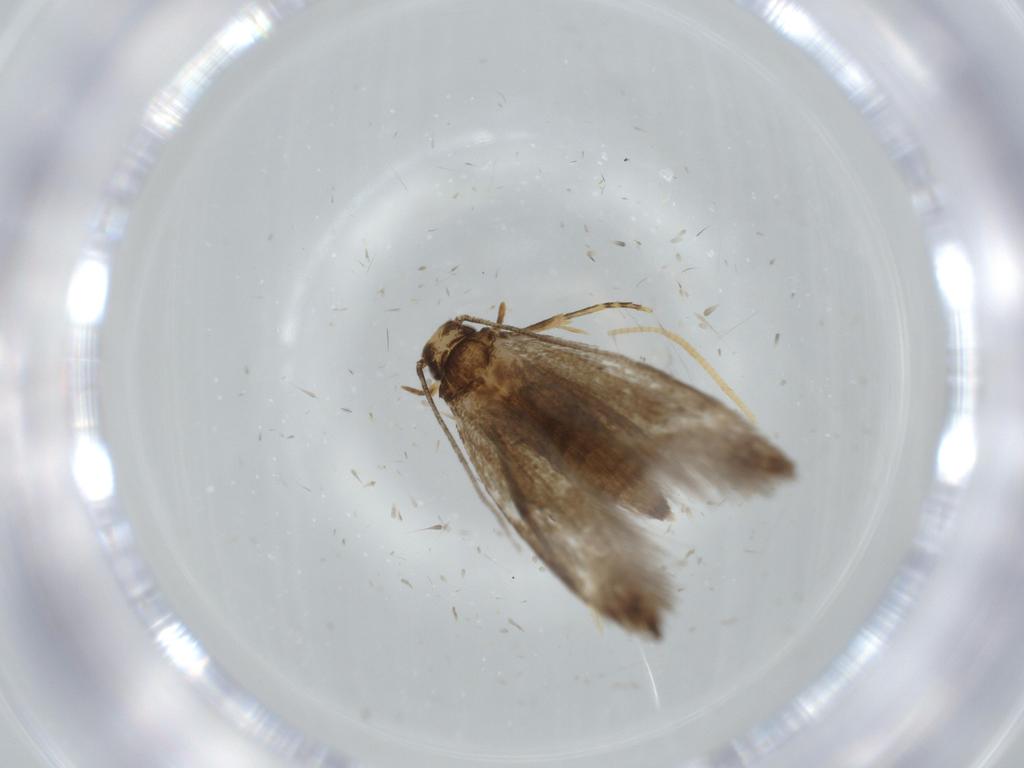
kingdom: Animalia
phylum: Arthropoda
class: Insecta
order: Lepidoptera
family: Tineidae
